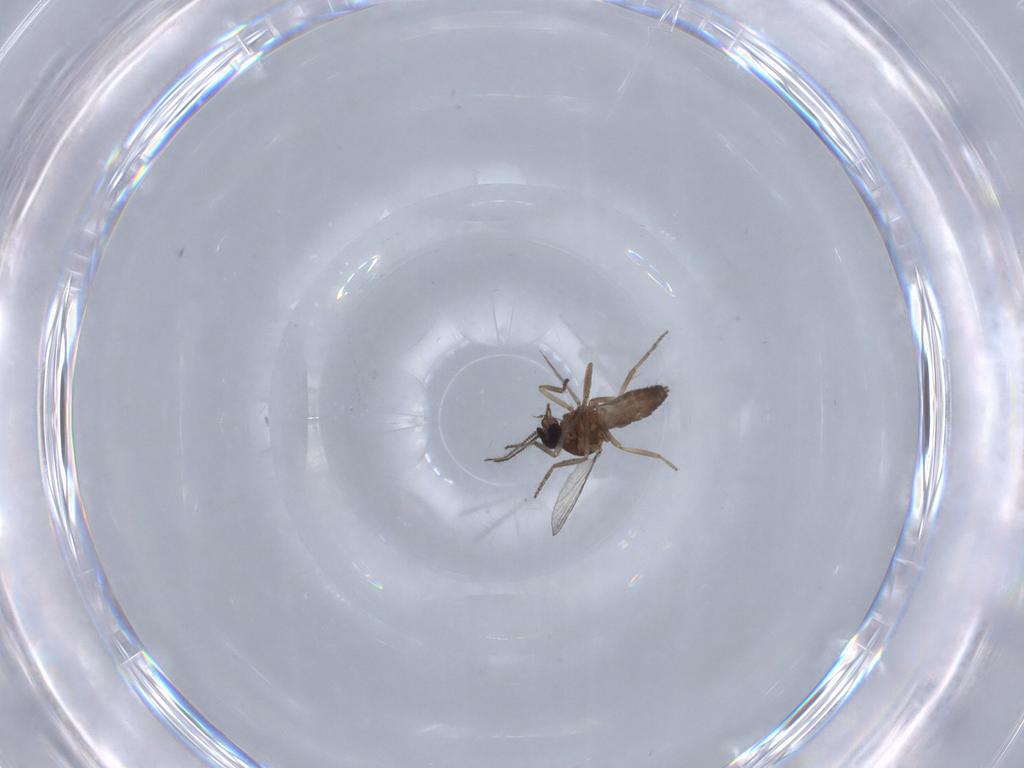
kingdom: Animalia
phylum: Arthropoda
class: Insecta
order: Diptera
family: Chironomidae
